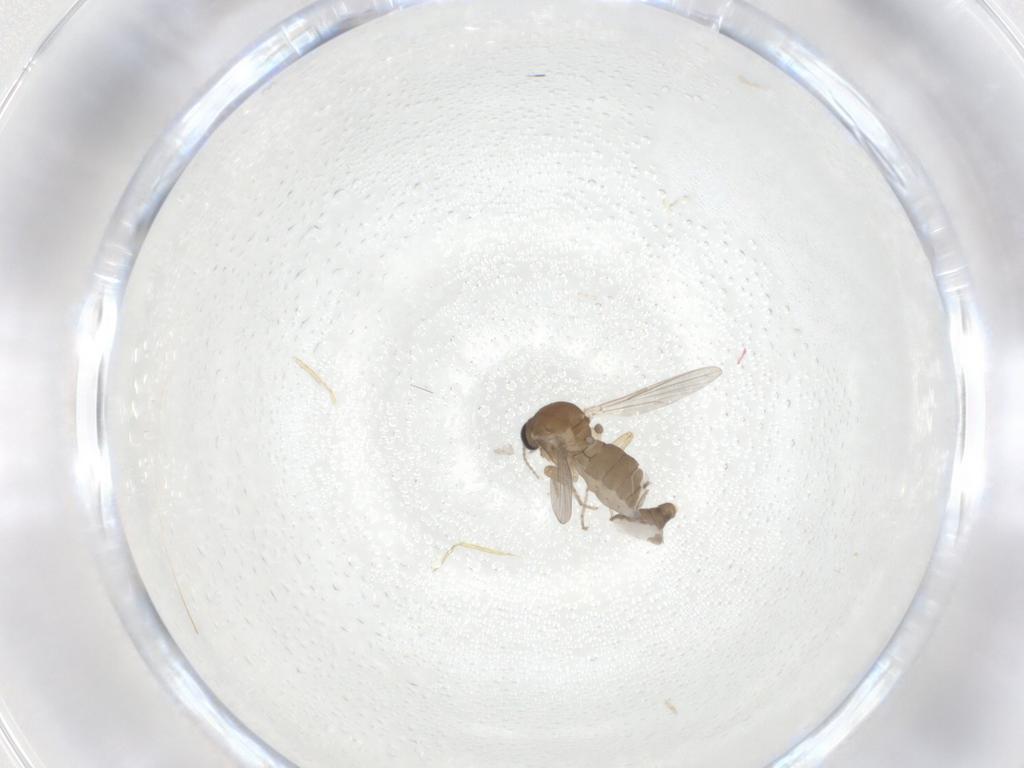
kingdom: Animalia
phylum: Arthropoda
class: Insecta
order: Diptera
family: Ceratopogonidae
